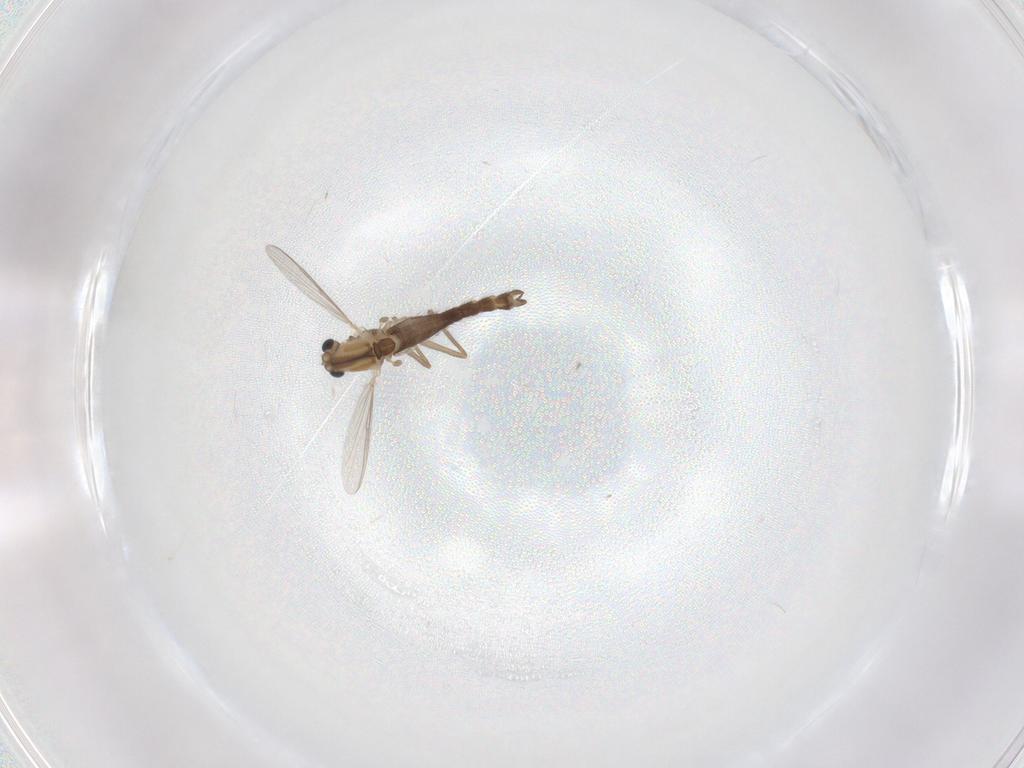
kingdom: Animalia
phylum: Arthropoda
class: Insecta
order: Diptera
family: Chironomidae
